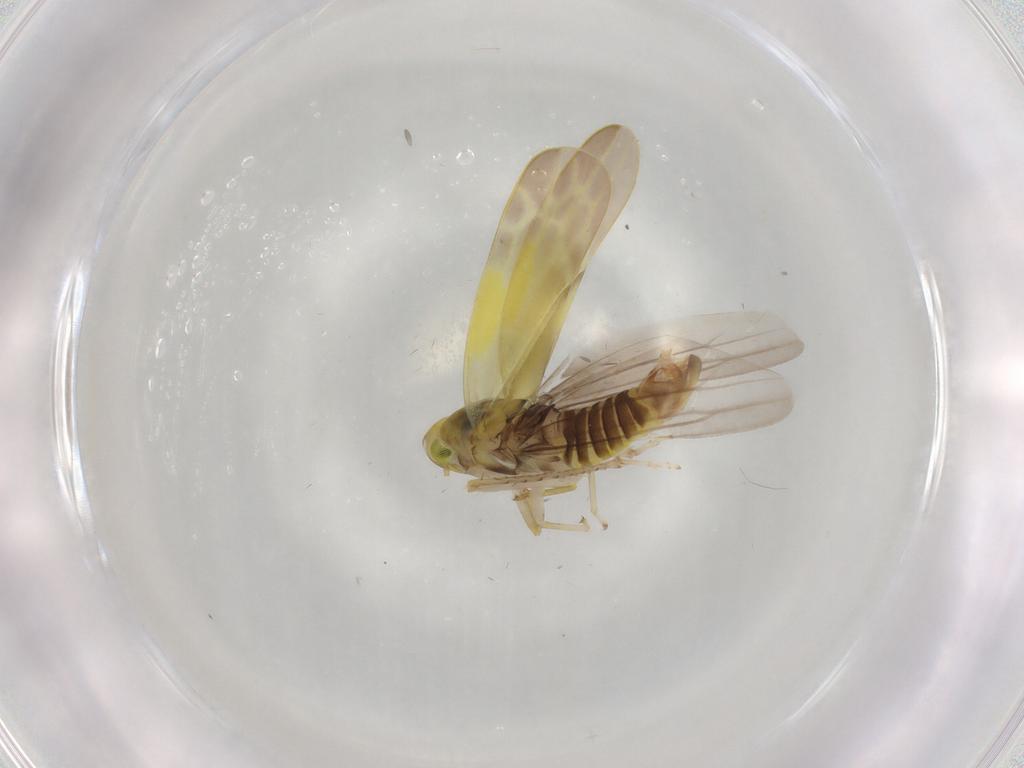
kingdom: Animalia
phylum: Arthropoda
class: Insecta
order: Hemiptera
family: Cicadellidae
